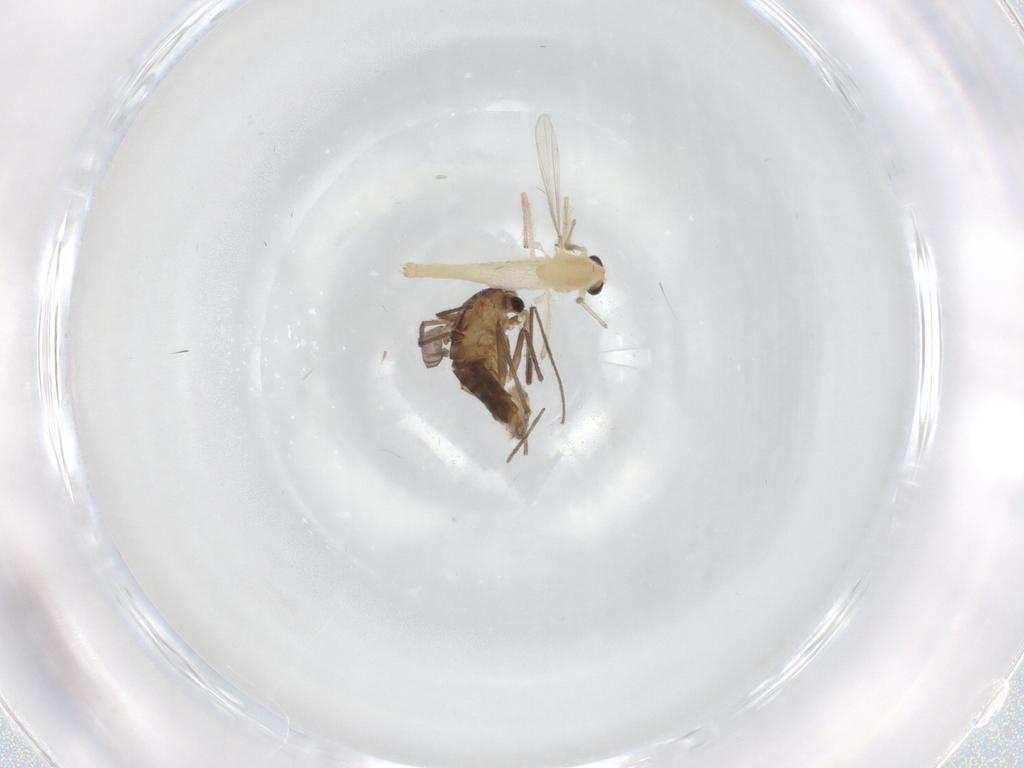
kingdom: Animalia
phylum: Arthropoda
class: Insecta
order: Diptera
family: Chironomidae
